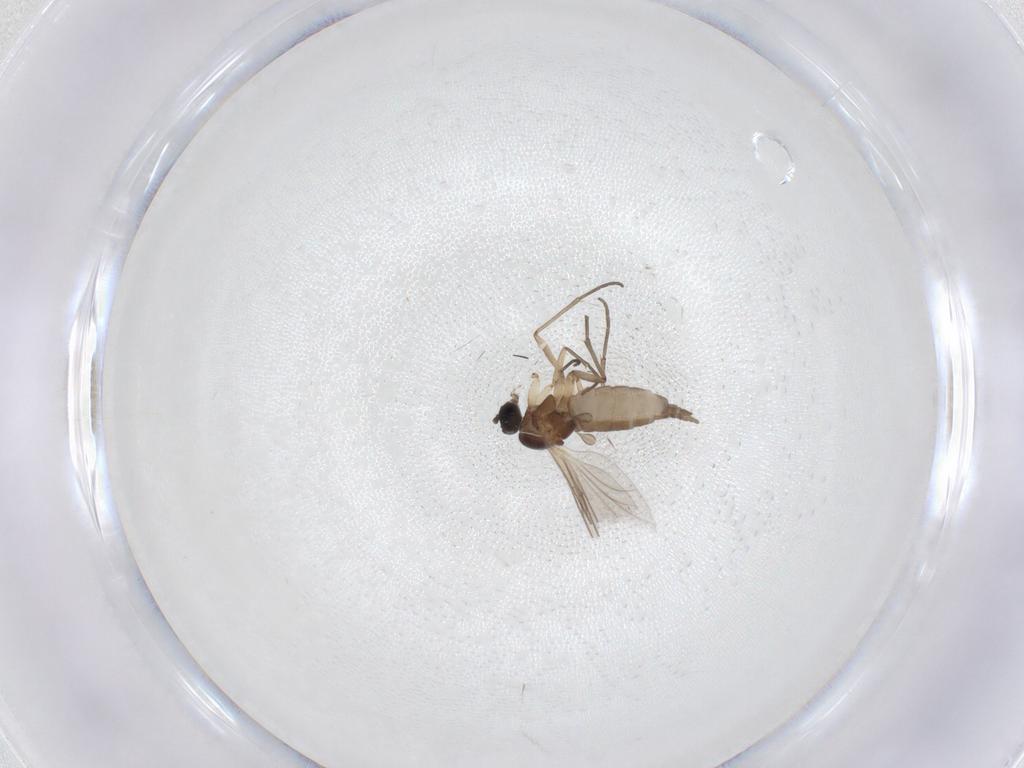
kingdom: Animalia
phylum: Arthropoda
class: Insecta
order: Diptera
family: Sciaridae
